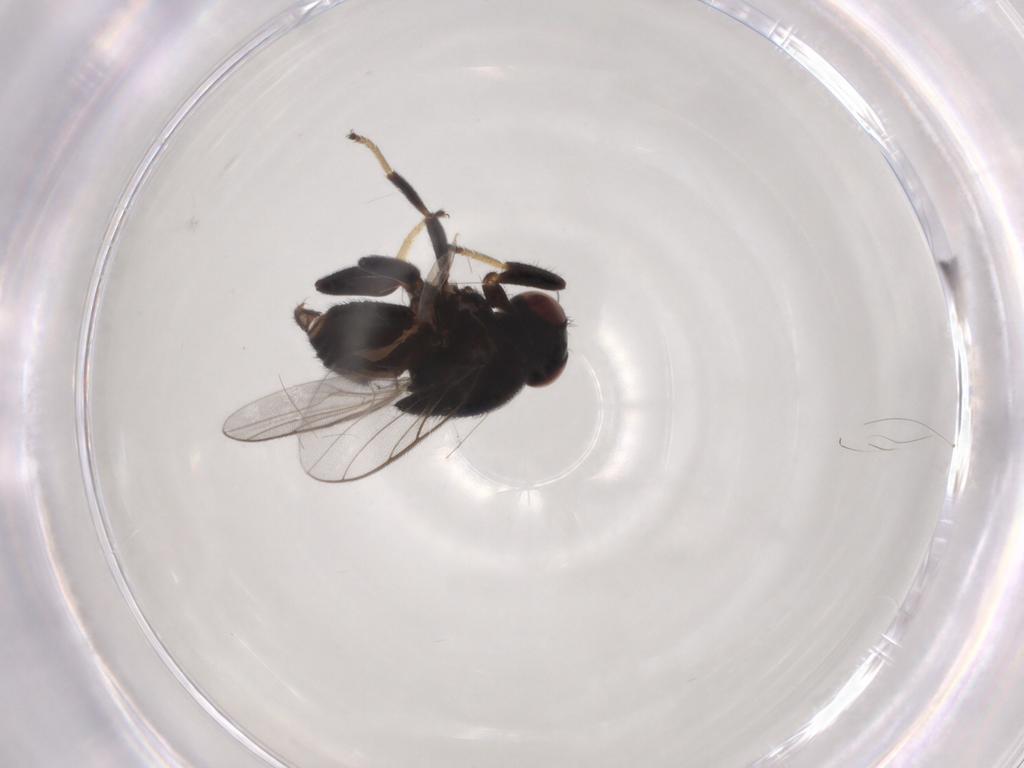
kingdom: Animalia
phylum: Arthropoda
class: Insecta
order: Diptera
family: Chloropidae
